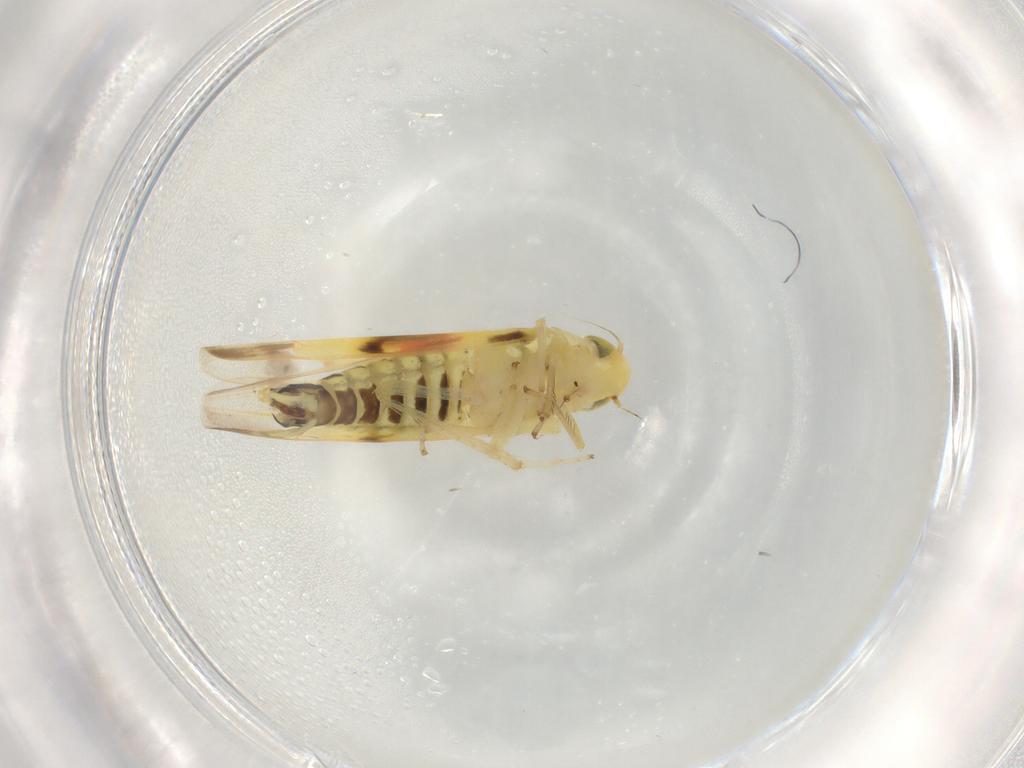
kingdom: Animalia
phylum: Arthropoda
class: Insecta
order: Hemiptera
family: Cicadellidae
